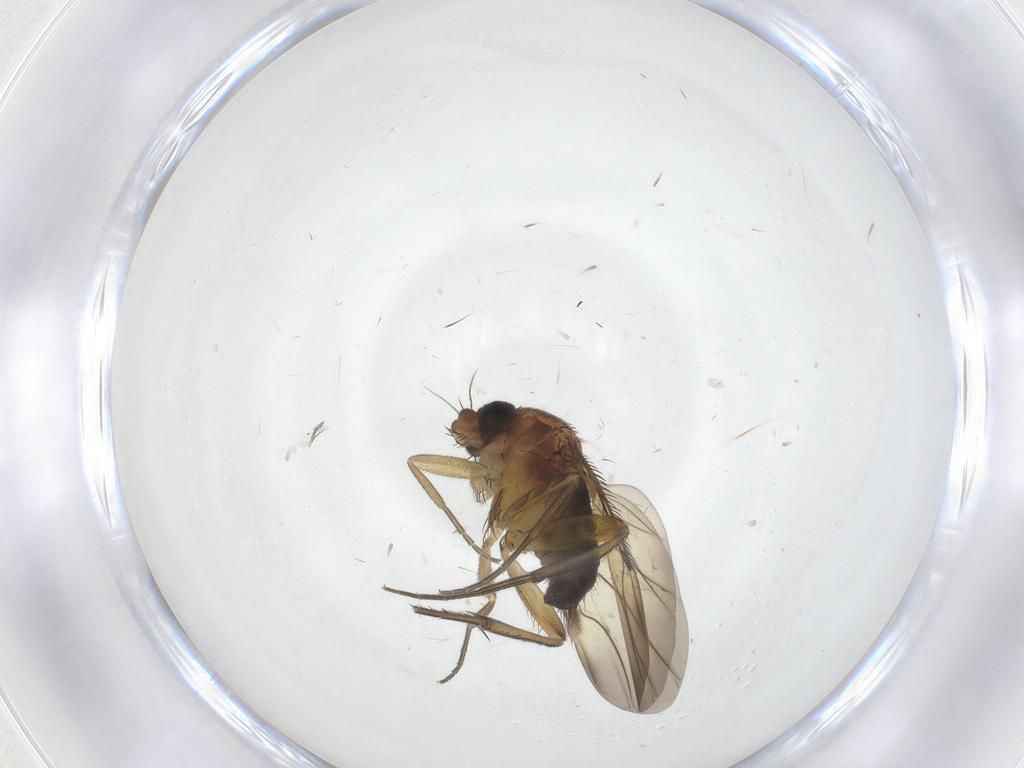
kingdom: Animalia
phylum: Arthropoda
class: Insecta
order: Diptera
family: Phoridae
